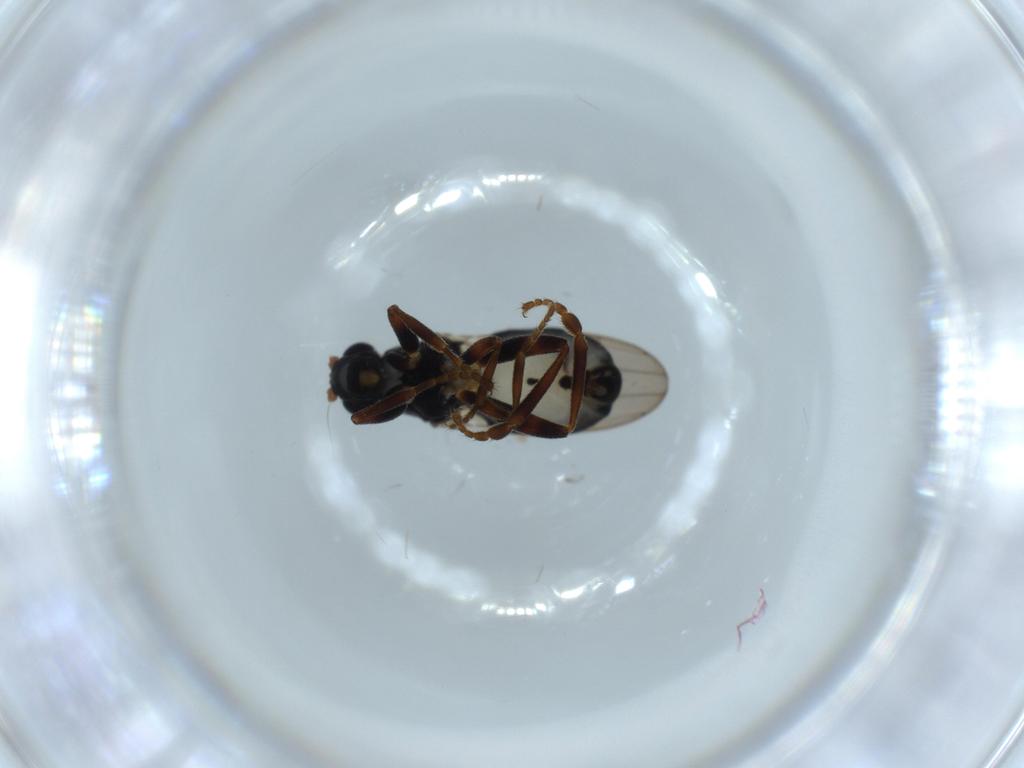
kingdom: Animalia
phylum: Arthropoda
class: Insecta
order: Diptera
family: Sphaeroceridae
